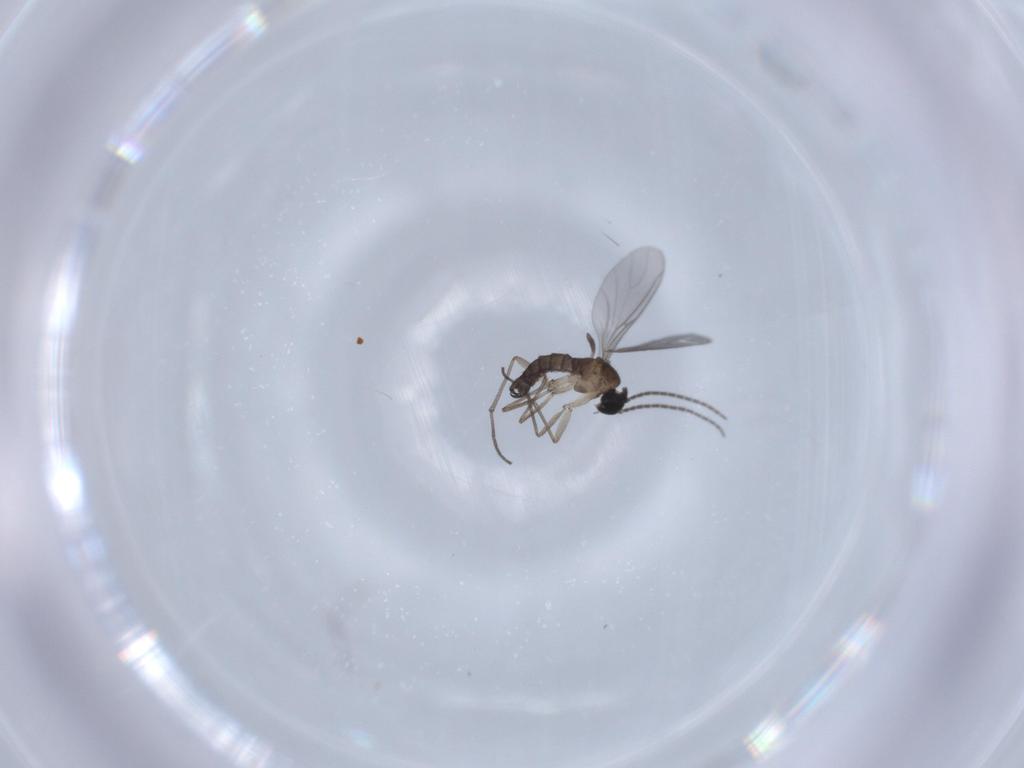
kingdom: Animalia
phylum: Arthropoda
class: Insecta
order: Diptera
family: Sciaridae
